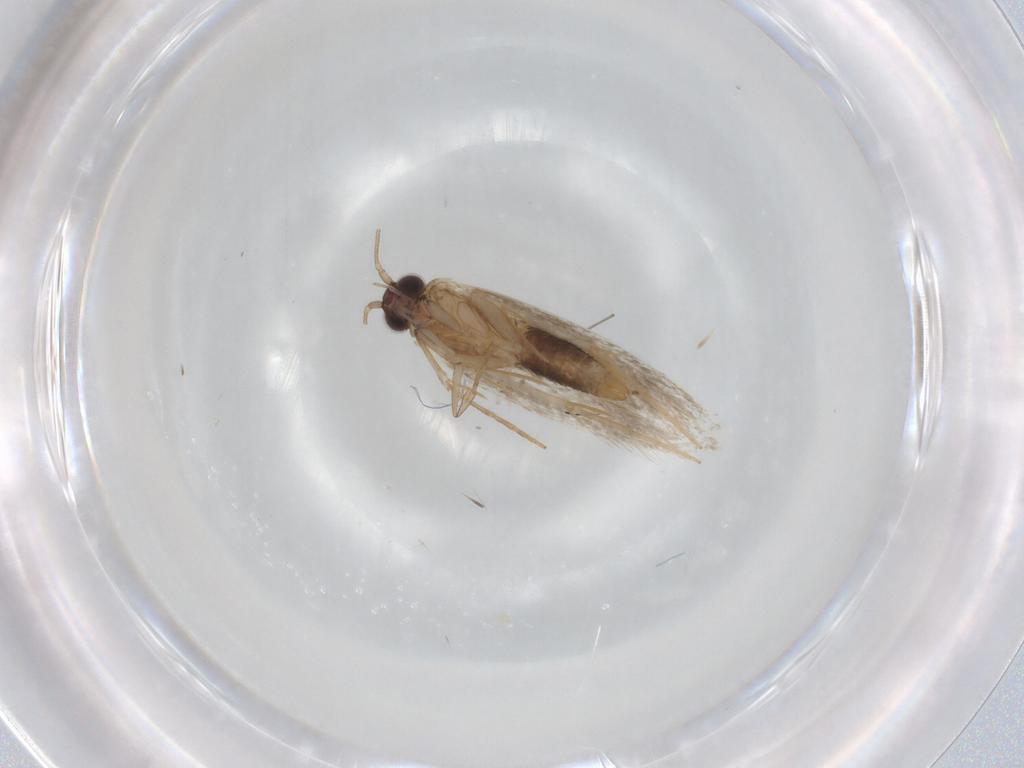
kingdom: Animalia
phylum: Arthropoda
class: Insecta
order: Lepidoptera
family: Tineidae
